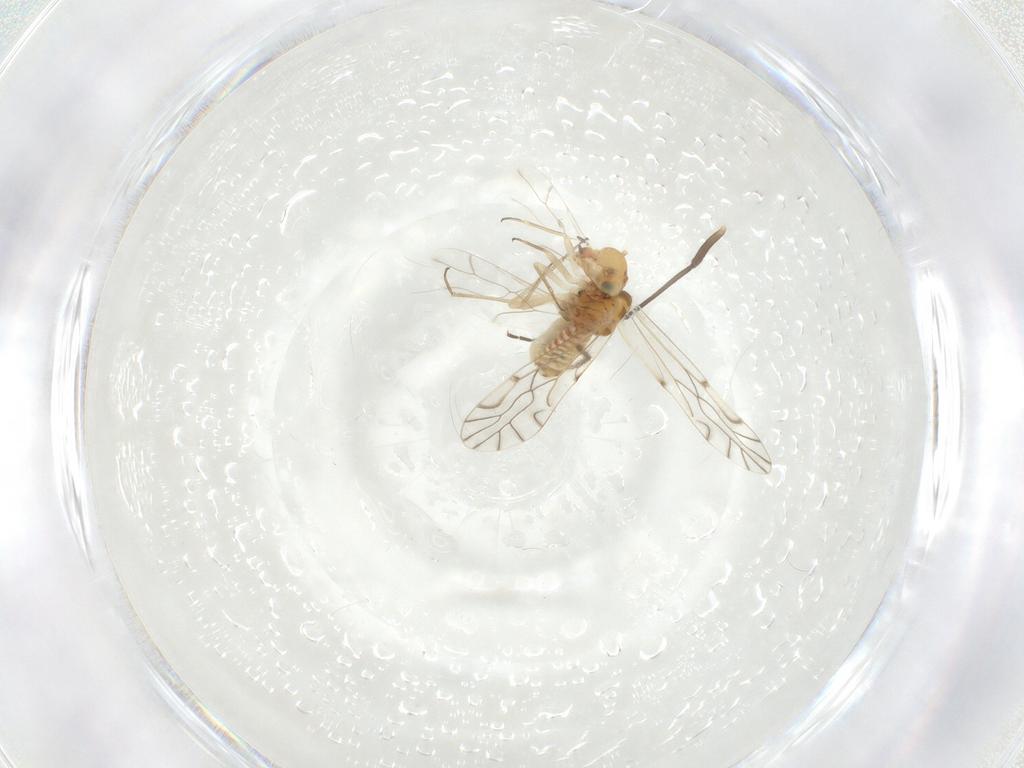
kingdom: Animalia
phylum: Arthropoda
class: Insecta
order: Psocodea
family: Lachesillidae
